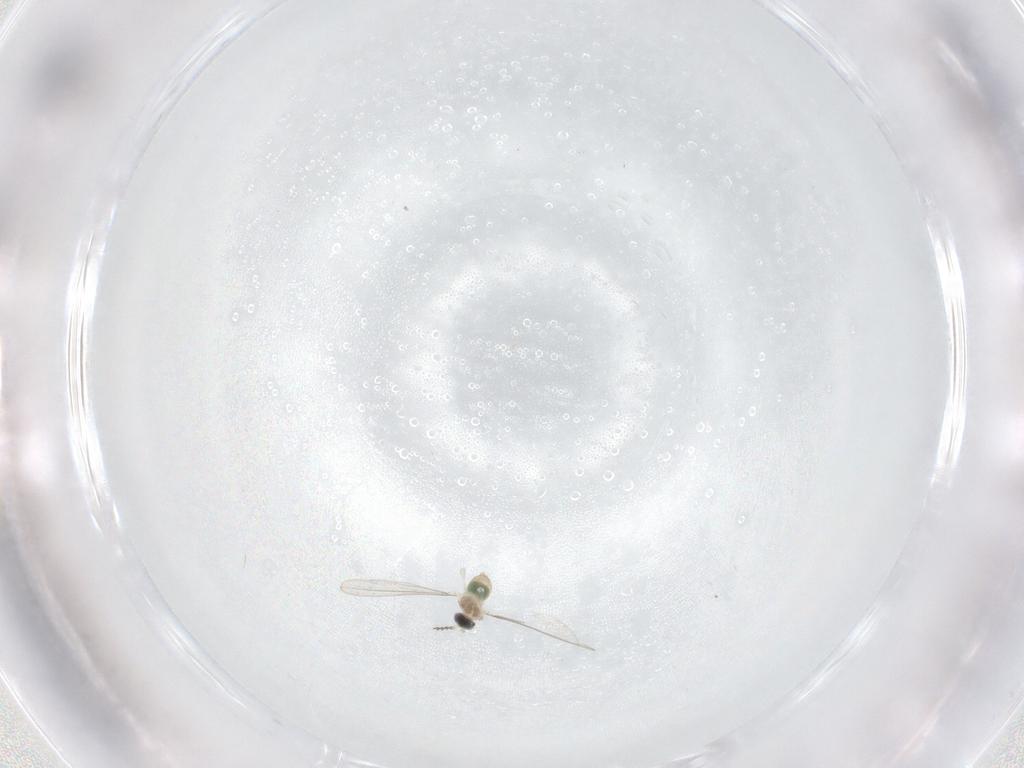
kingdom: Animalia
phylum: Arthropoda
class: Insecta
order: Diptera
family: Cecidomyiidae
